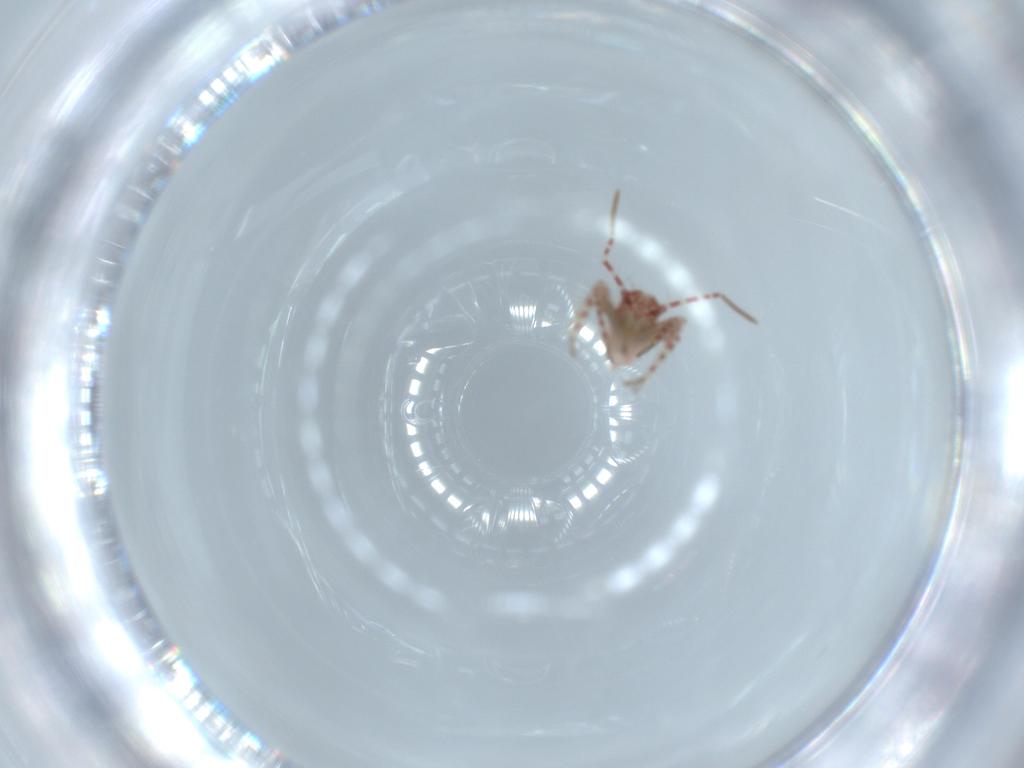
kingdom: Animalia
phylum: Arthropoda
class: Insecta
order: Hemiptera
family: Miridae
